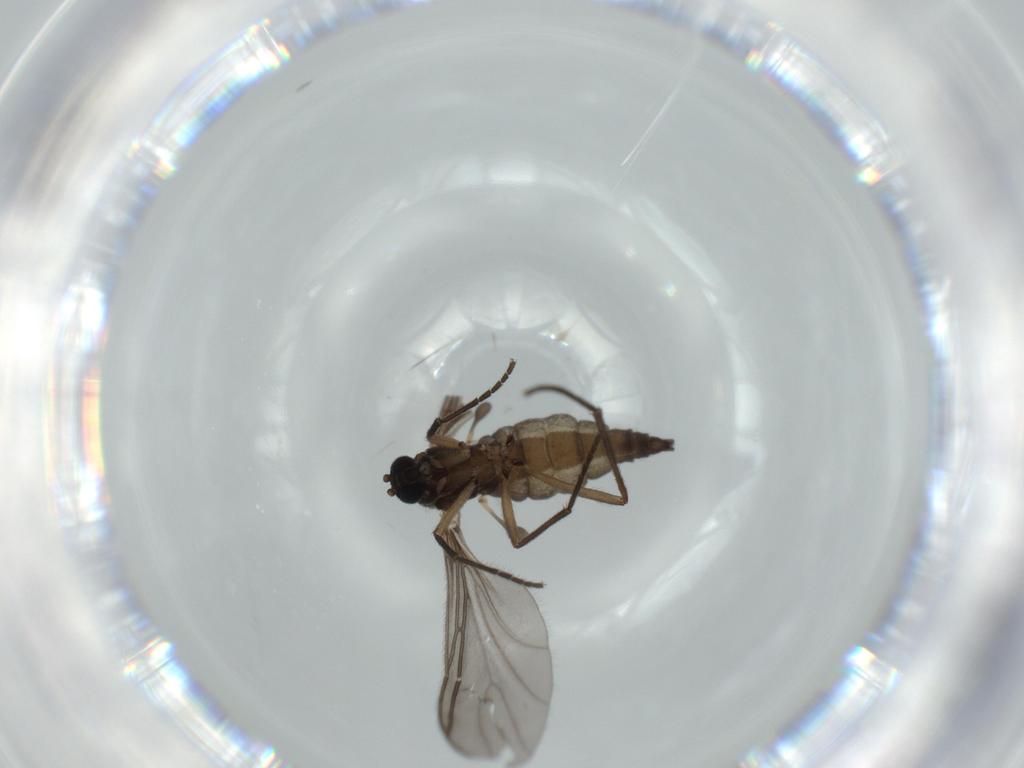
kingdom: Animalia
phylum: Arthropoda
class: Insecta
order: Diptera
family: Sciaridae
